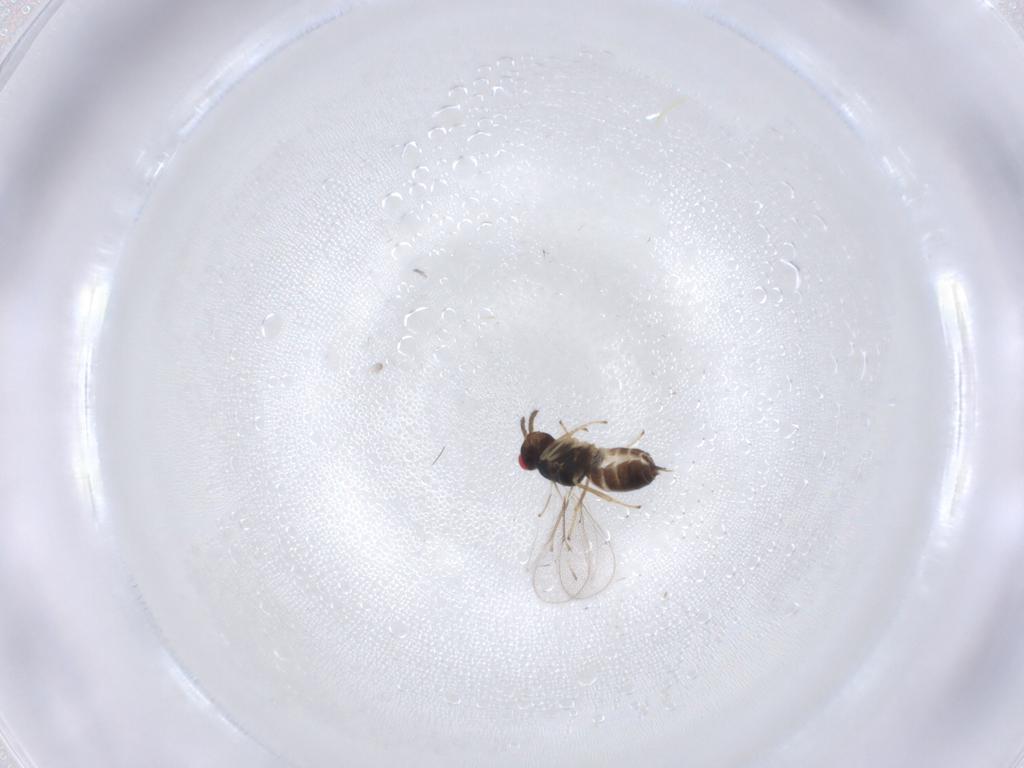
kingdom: Animalia
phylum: Arthropoda
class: Insecta
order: Hymenoptera
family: Eulophidae
